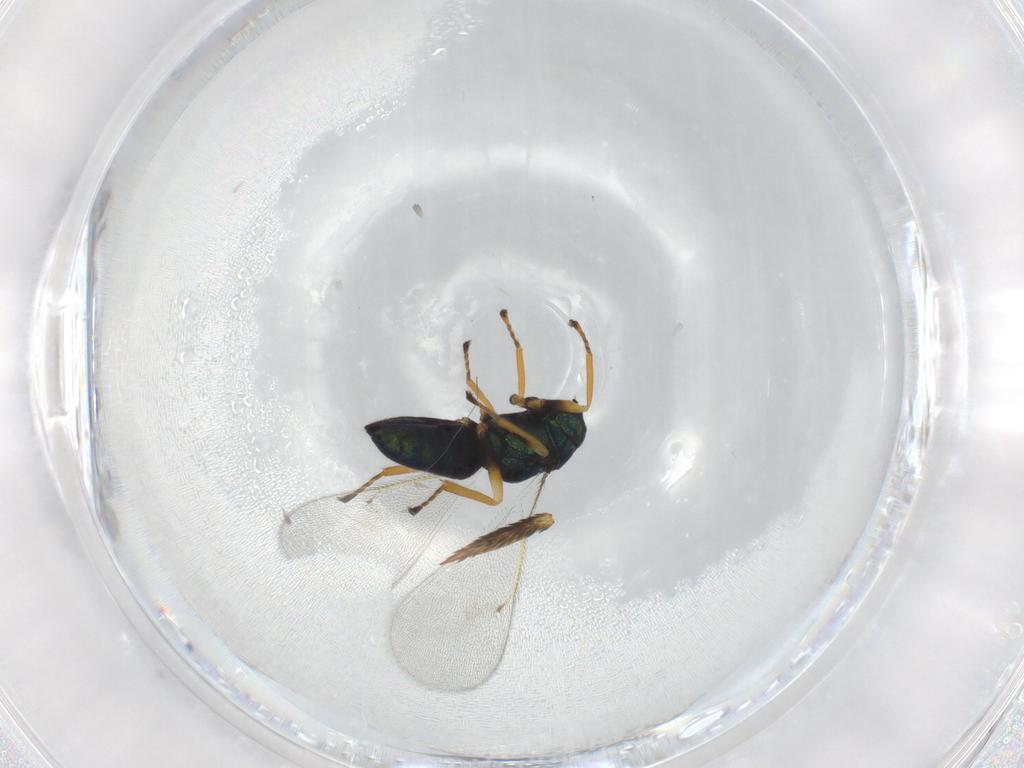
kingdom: Animalia
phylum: Arthropoda
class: Insecta
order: Hymenoptera
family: Eulophidae
